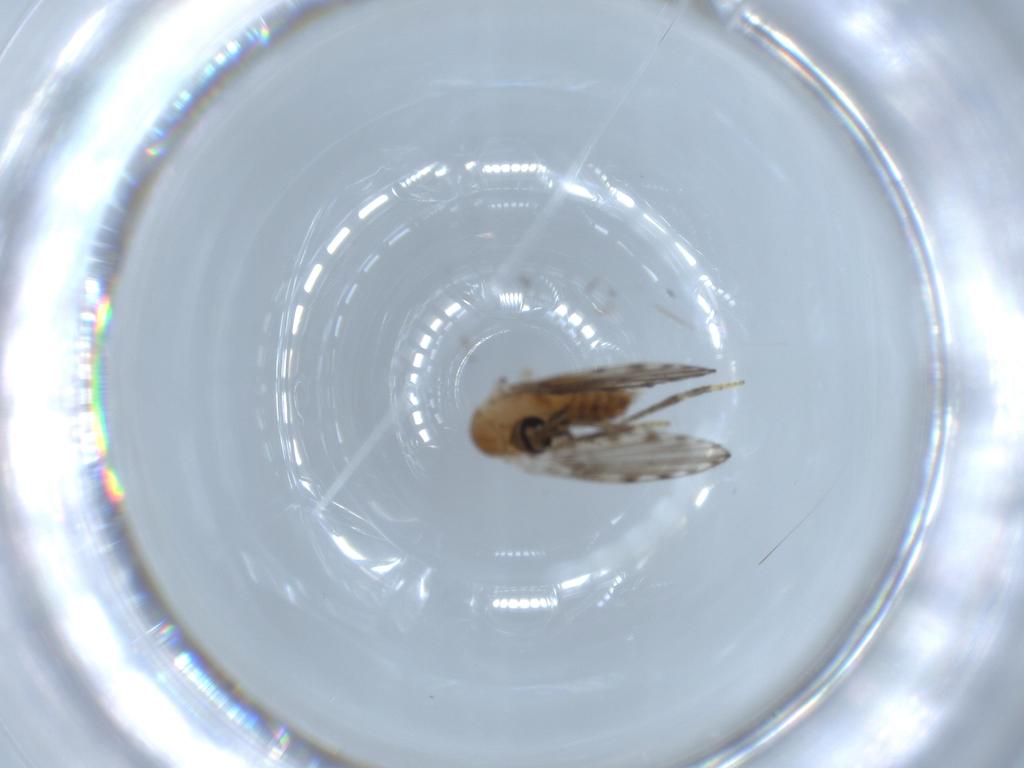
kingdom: Animalia
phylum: Arthropoda
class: Insecta
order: Diptera
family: Psychodidae
